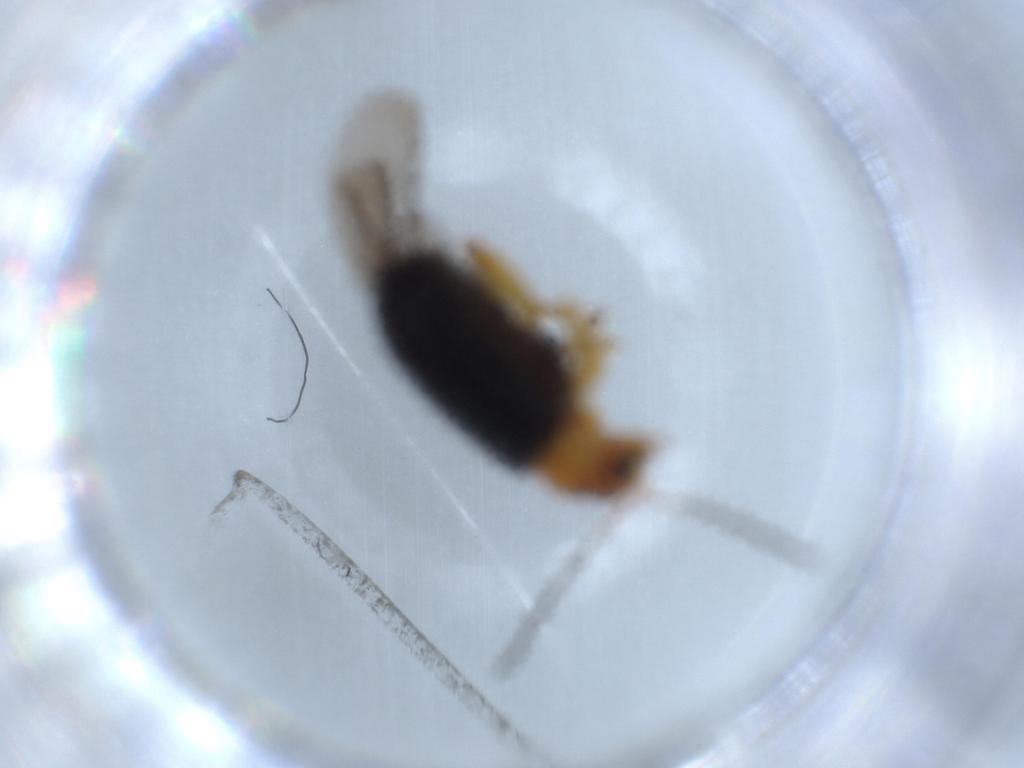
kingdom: Animalia
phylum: Arthropoda
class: Insecta
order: Coleoptera
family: Chrysomelidae
